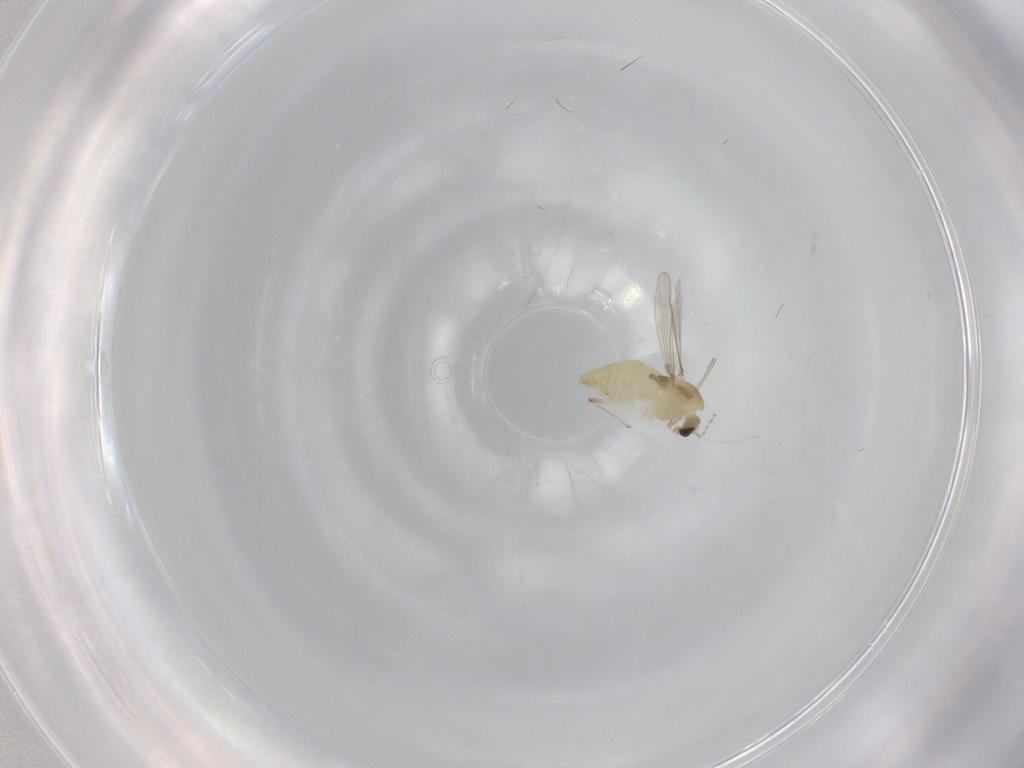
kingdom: Animalia
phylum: Arthropoda
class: Insecta
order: Diptera
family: Chironomidae
